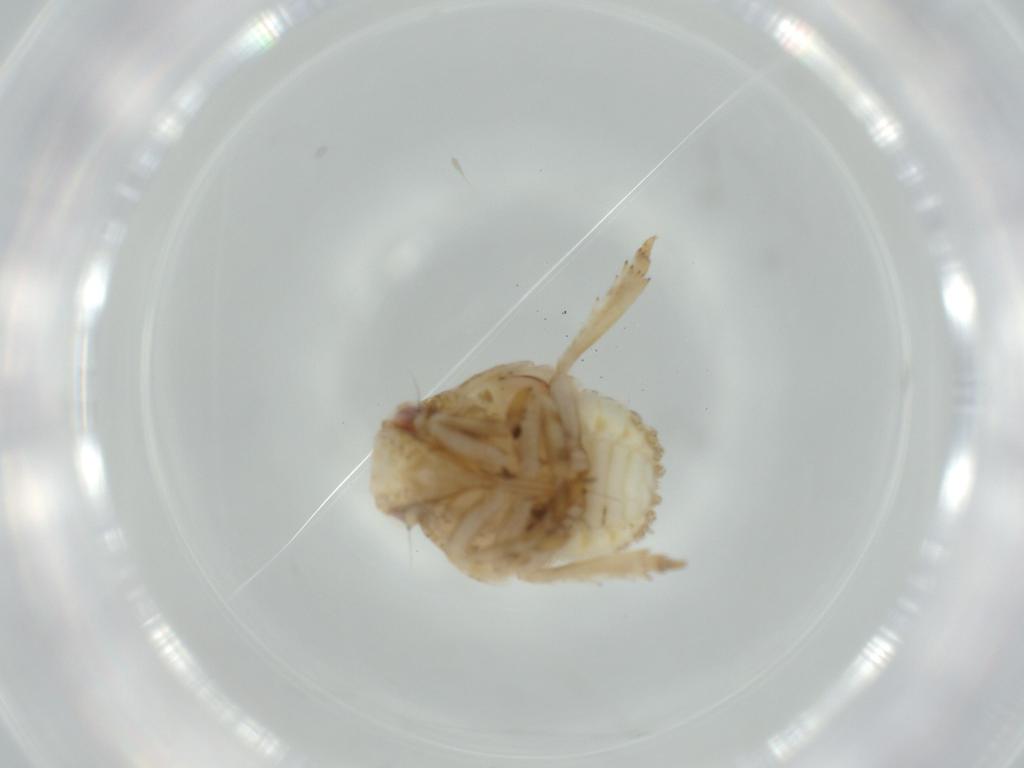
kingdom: Animalia
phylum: Arthropoda
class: Insecta
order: Hemiptera
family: Acanaloniidae
